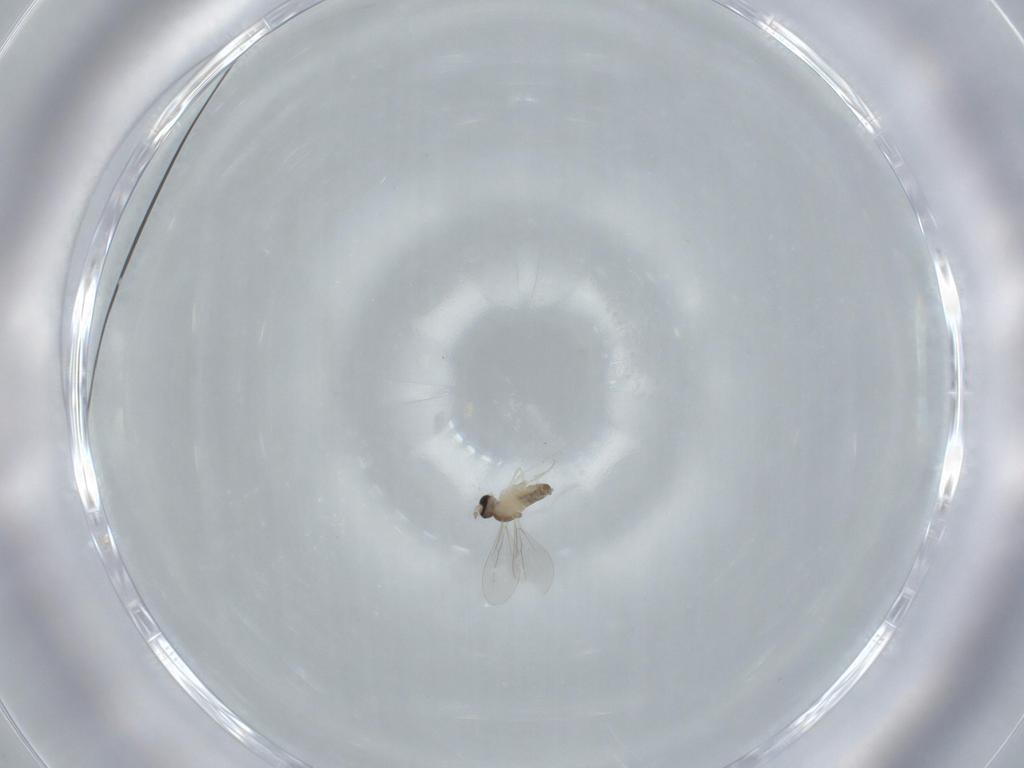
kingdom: Animalia
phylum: Arthropoda
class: Insecta
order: Diptera
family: Cecidomyiidae
